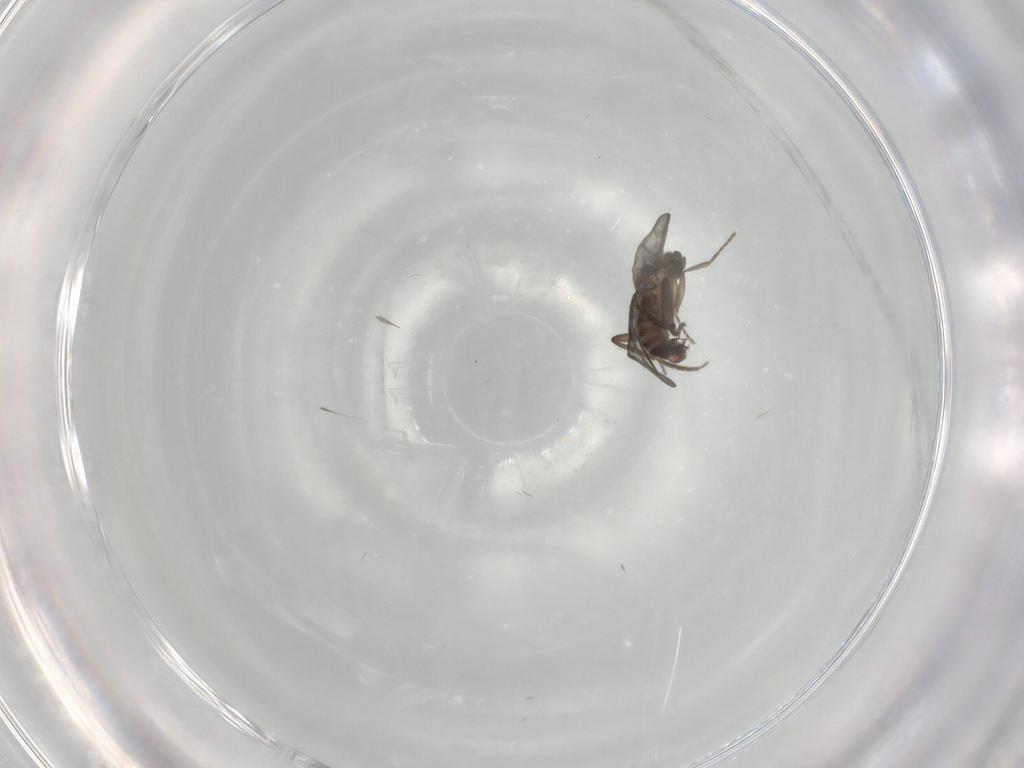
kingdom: Animalia
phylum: Arthropoda
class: Insecta
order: Diptera
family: Phoridae
